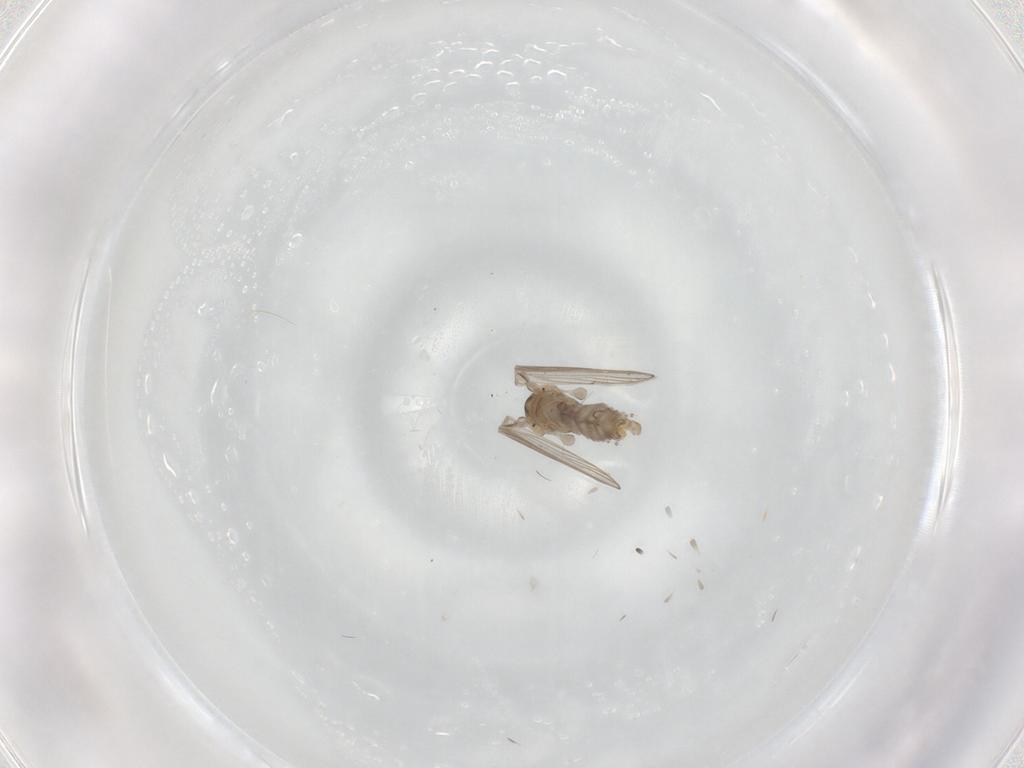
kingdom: Animalia
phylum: Arthropoda
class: Insecta
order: Diptera
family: Psychodidae
